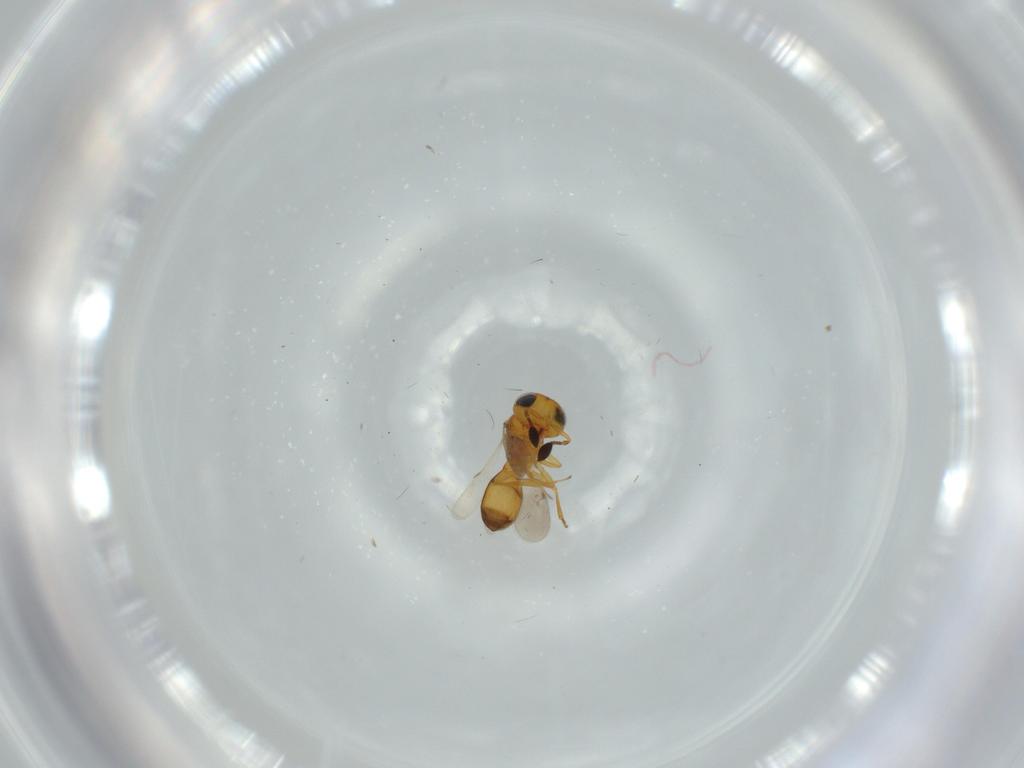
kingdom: Animalia
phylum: Arthropoda
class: Insecta
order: Hymenoptera
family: Scelionidae
